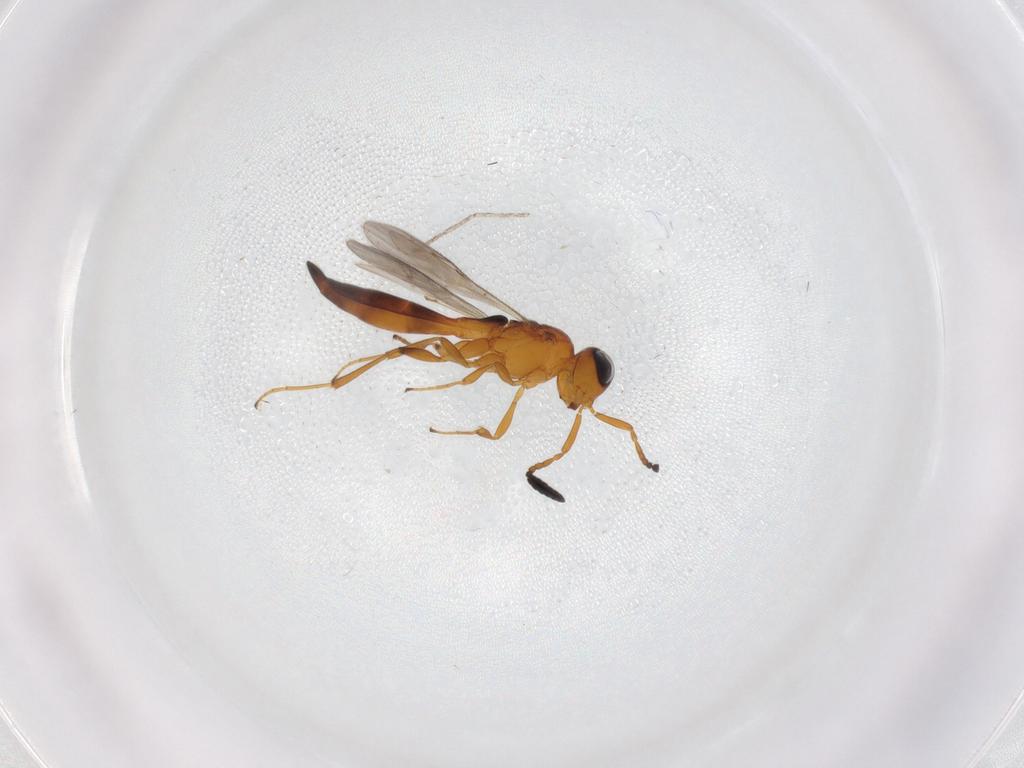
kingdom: Animalia
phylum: Arthropoda
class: Insecta
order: Hymenoptera
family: Scelionidae
